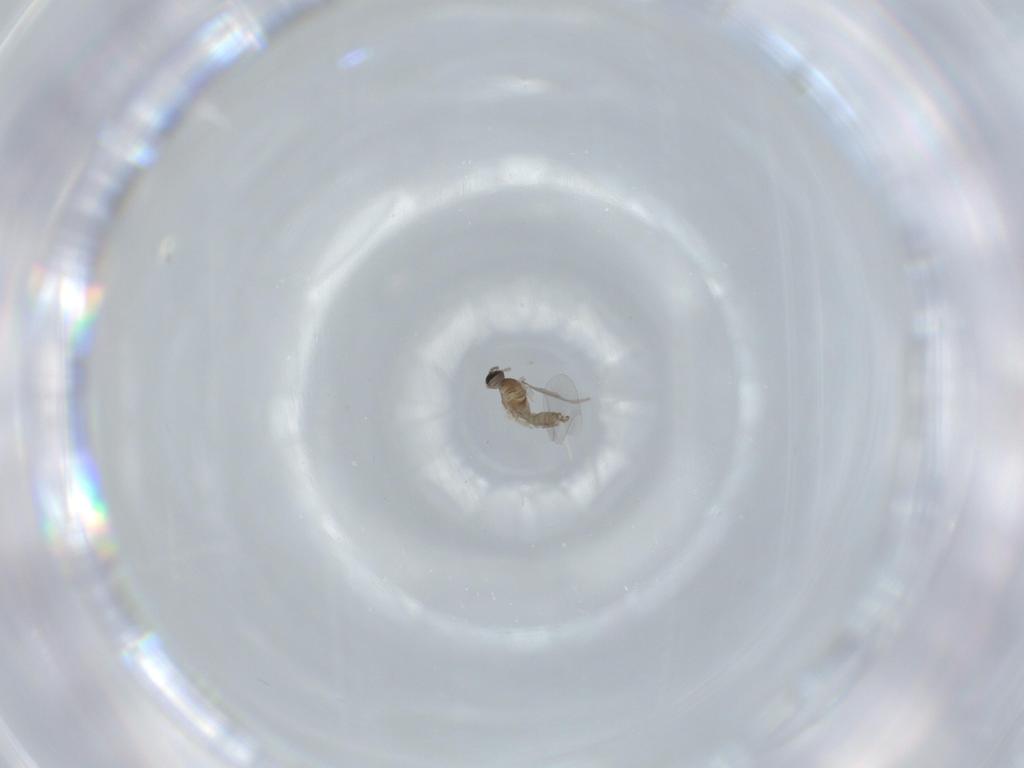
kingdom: Animalia
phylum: Arthropoda
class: Insecta
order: Diptera
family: Cecidomyiidae
